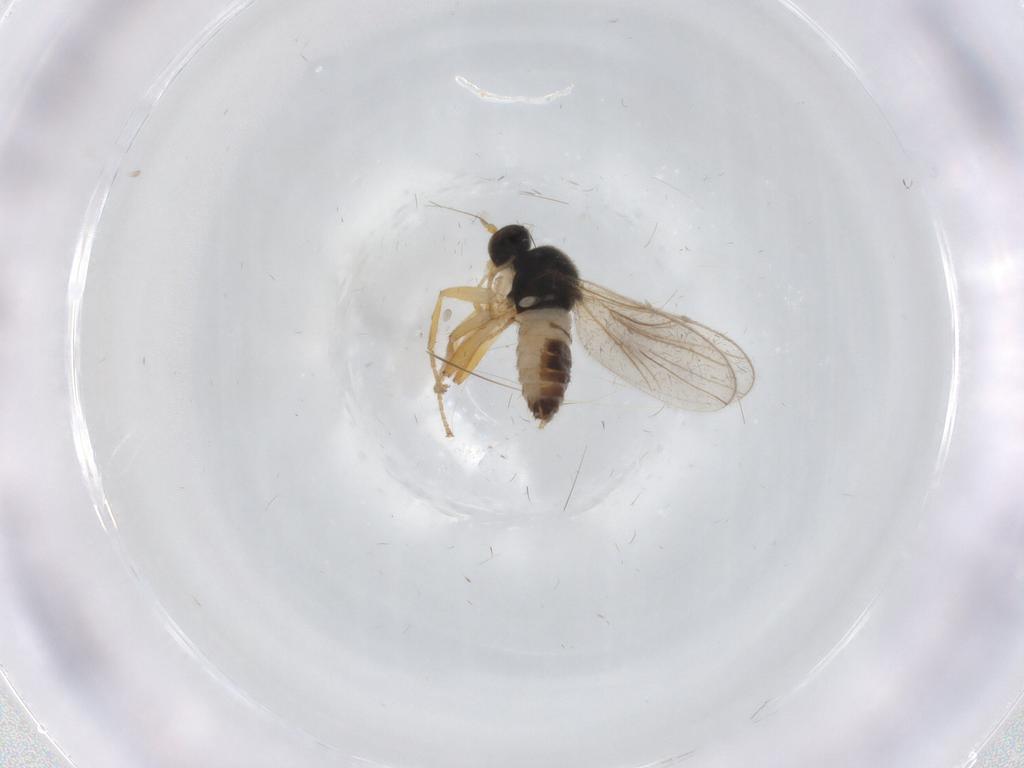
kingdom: Animalia
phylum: Arthropoda
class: Insecta
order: Diptera
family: Hybotidae
